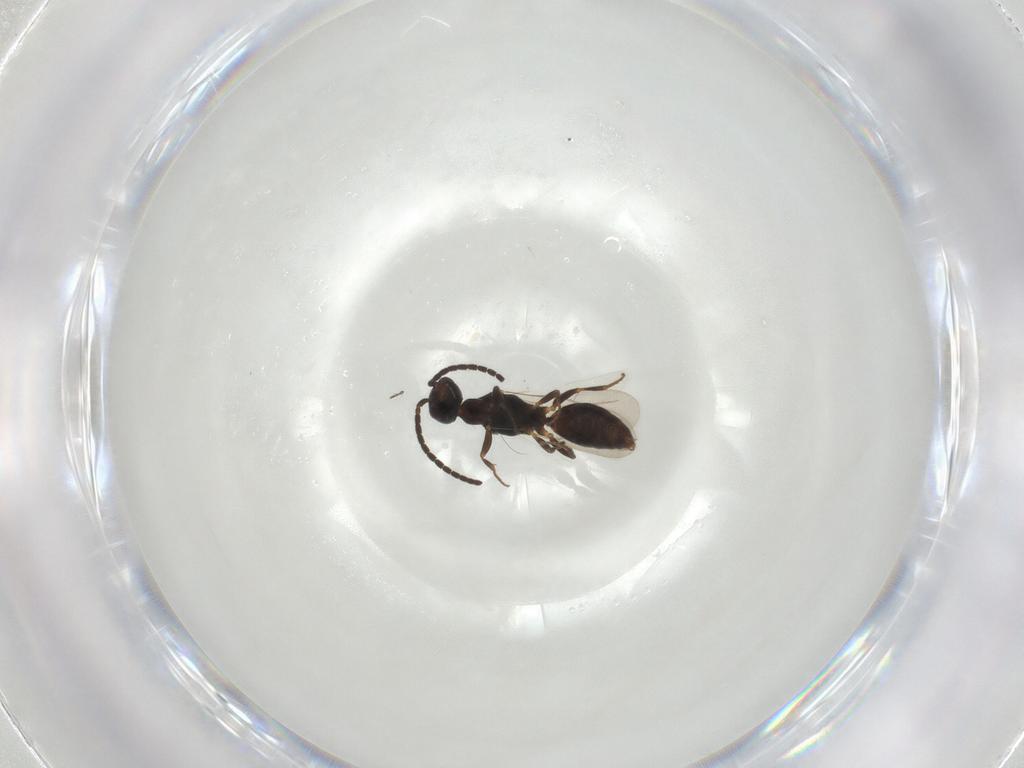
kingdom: Animalia
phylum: Arthropoda
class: Insecta
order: Hymenoptera
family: Bethylidae
